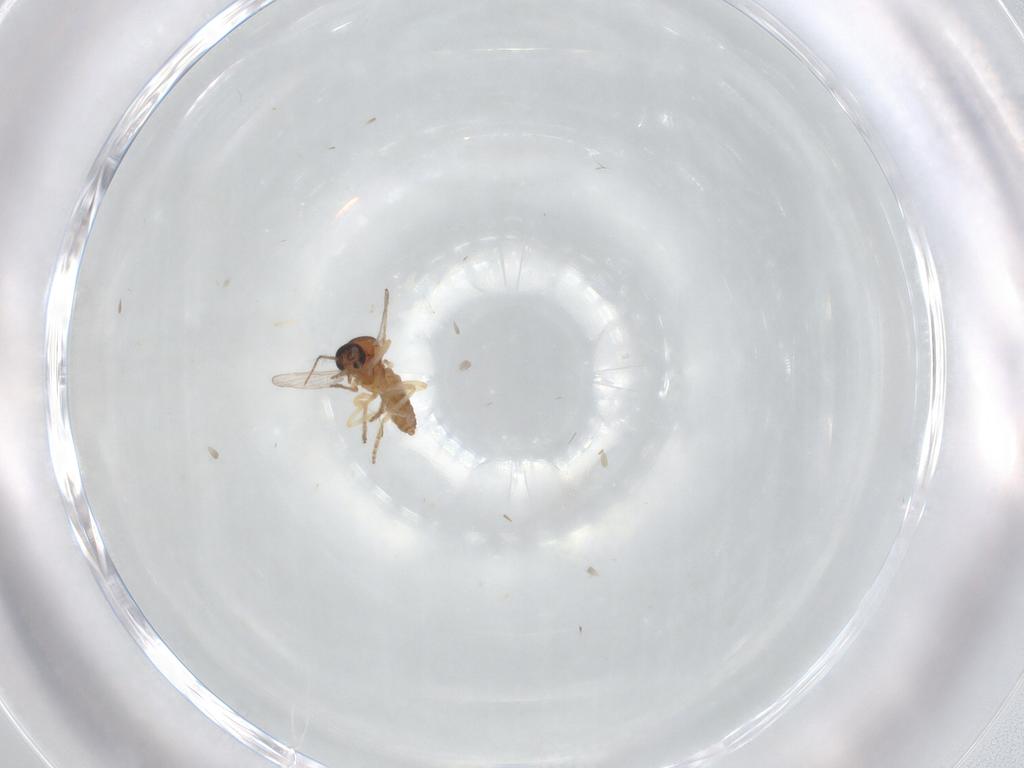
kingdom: Animalia
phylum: Arthropoda
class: Insecta
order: Diptera
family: Ceratopogonidae
